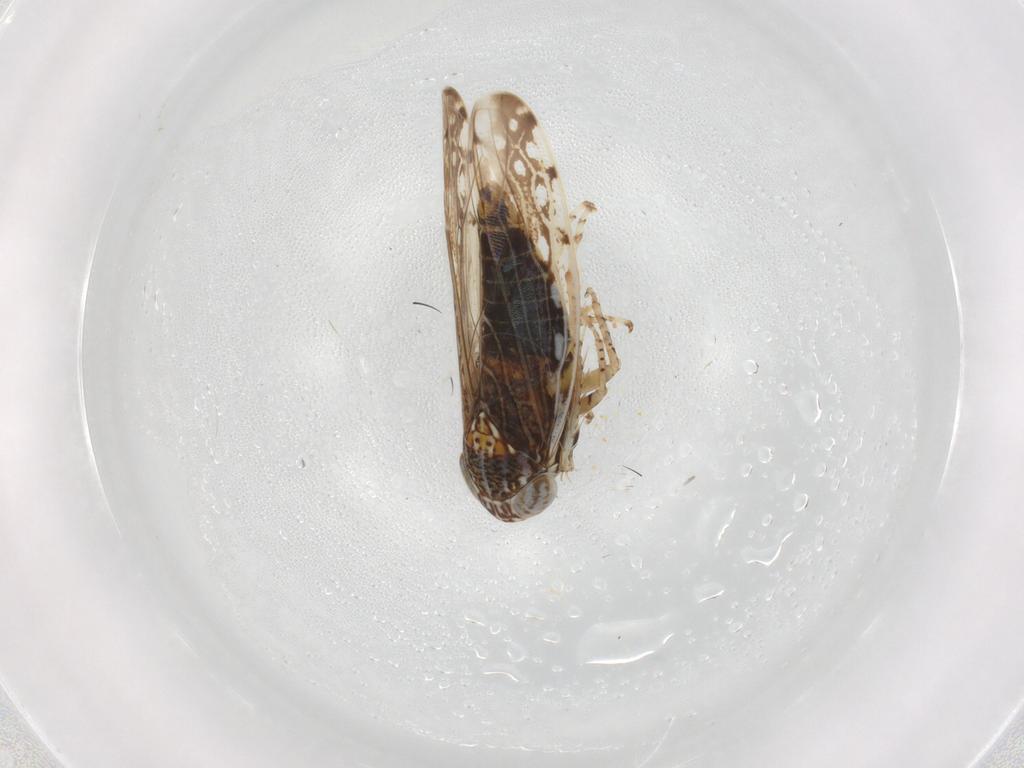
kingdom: Animalia
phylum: Arthropoda
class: Insecta
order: Hemiptera
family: Cicadellidae
